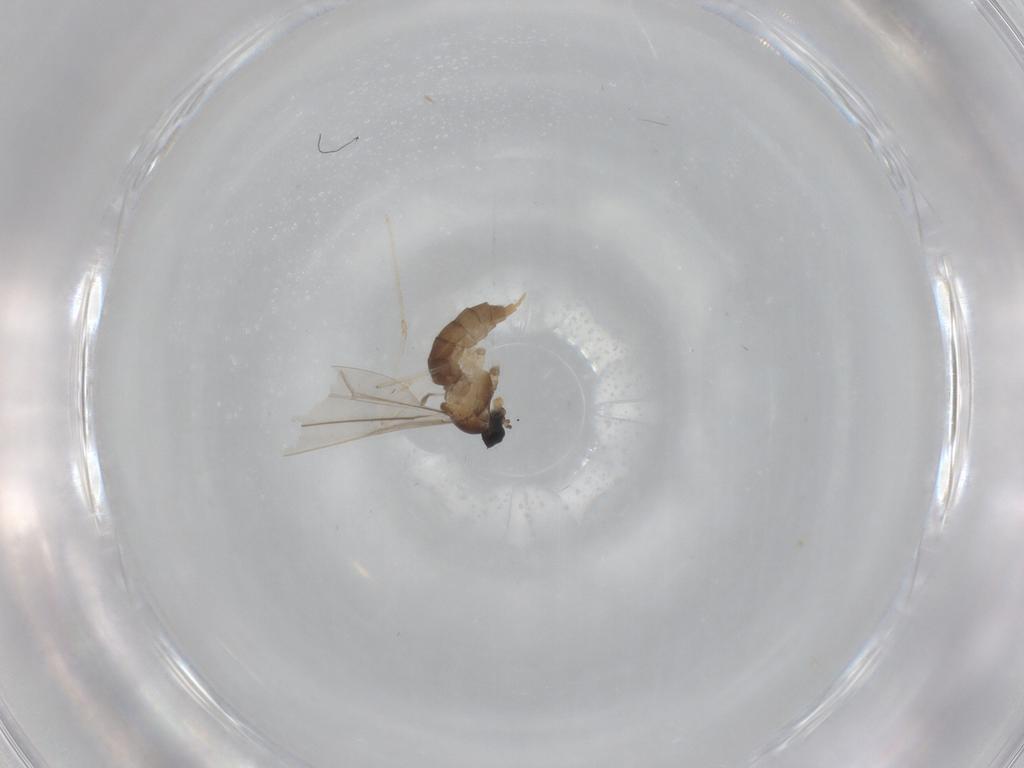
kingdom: Animalia
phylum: Arthropoda
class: Insecta
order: Diptera
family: Cecidomyiidae
